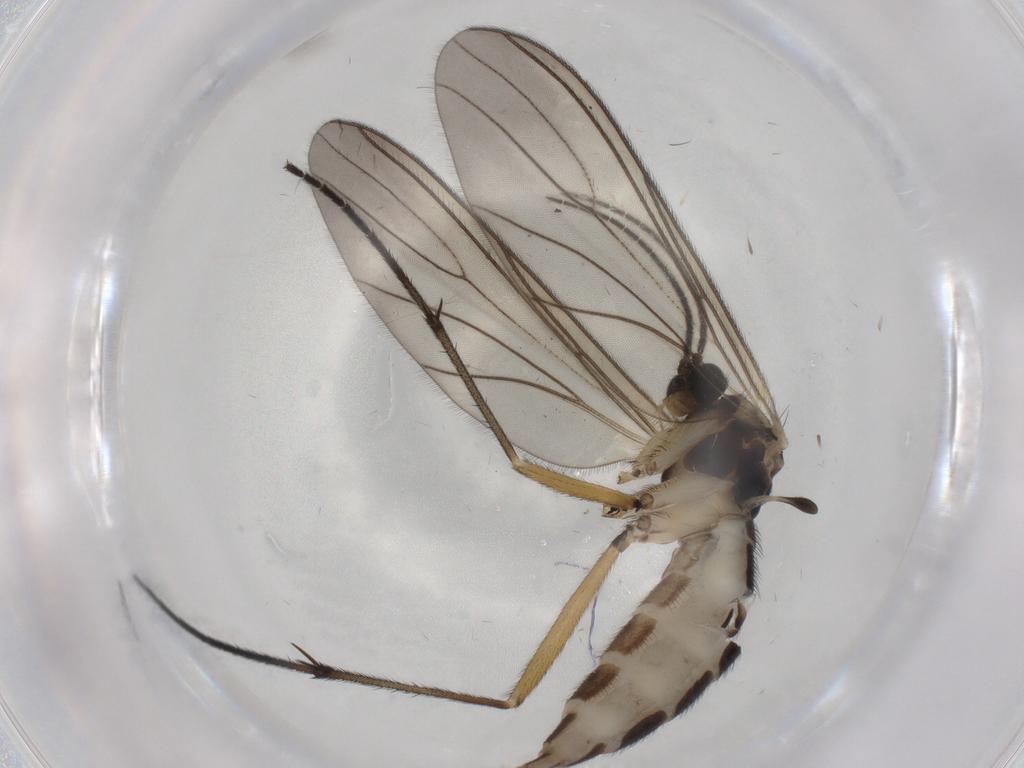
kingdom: Animalia
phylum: Arthropoda
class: Insecta
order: Diptera
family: Sciaridae
